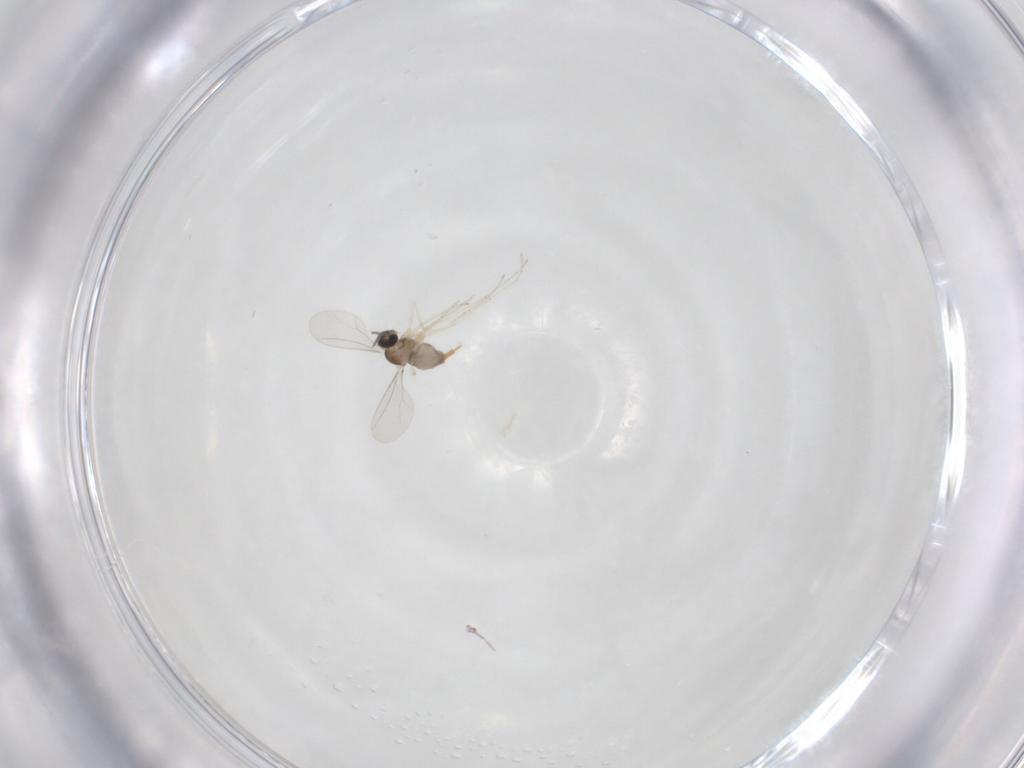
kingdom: Animalia
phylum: Arthropoda
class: Insecta
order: Diptera
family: Cecidomyiidae
